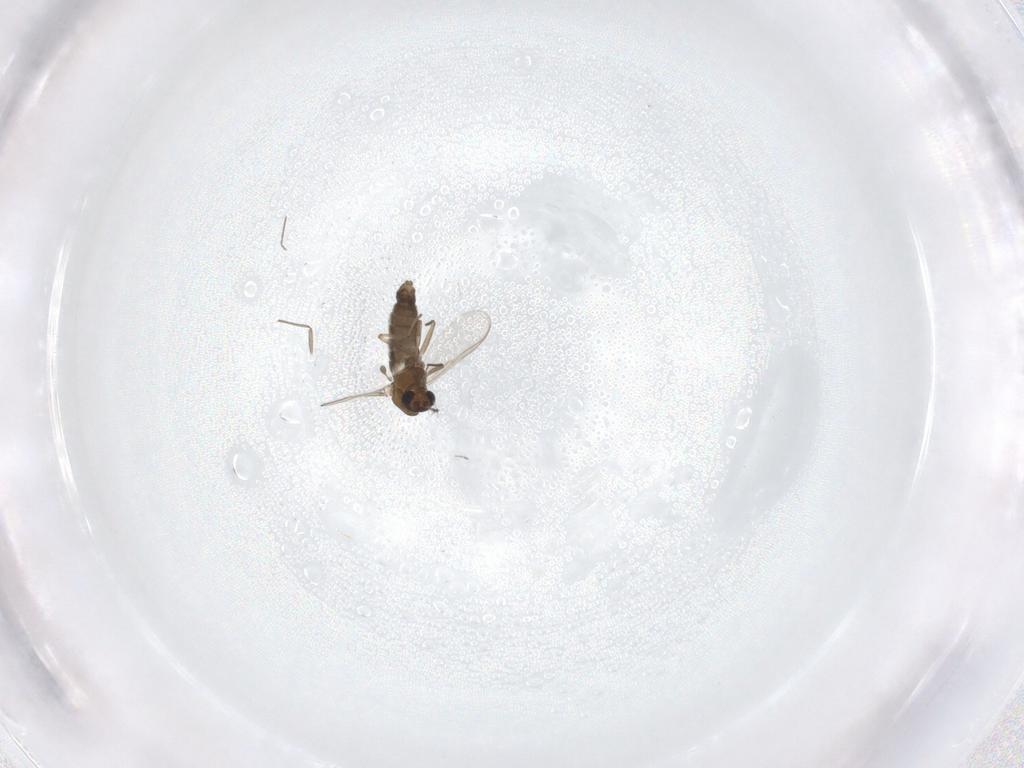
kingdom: Animalia
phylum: Arthropoda
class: Insecta
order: Diptera
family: Chironomidae
